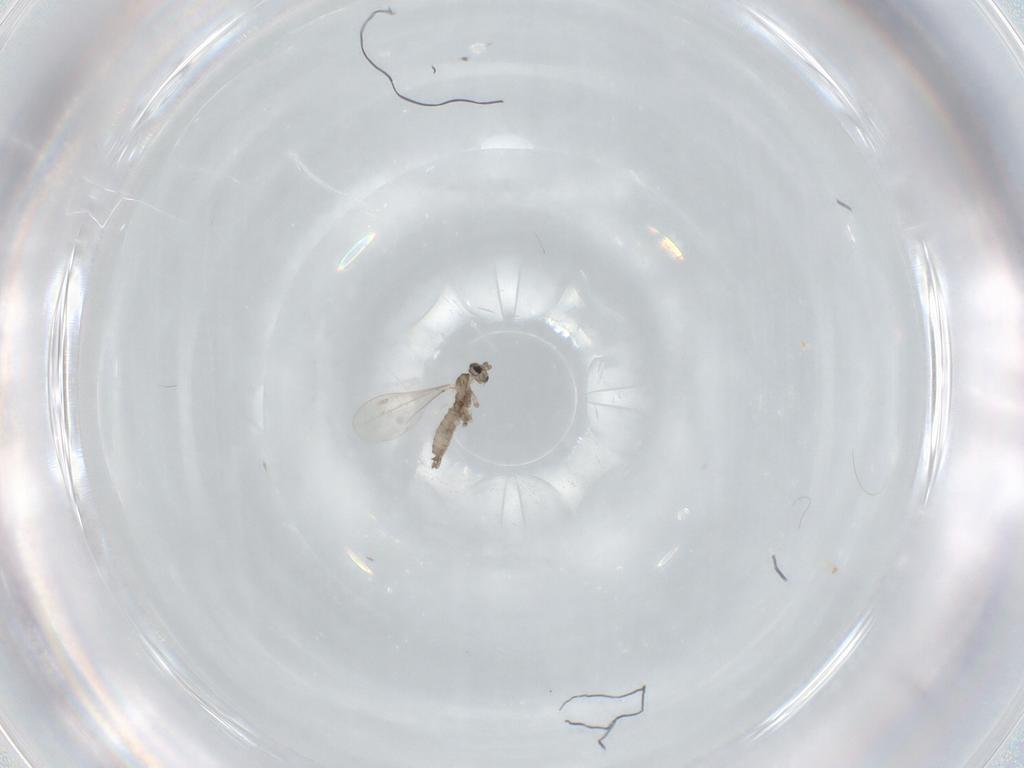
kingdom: Animalia
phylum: Arthropoda
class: Insecta
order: Diptera
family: Cecidomyiidae
